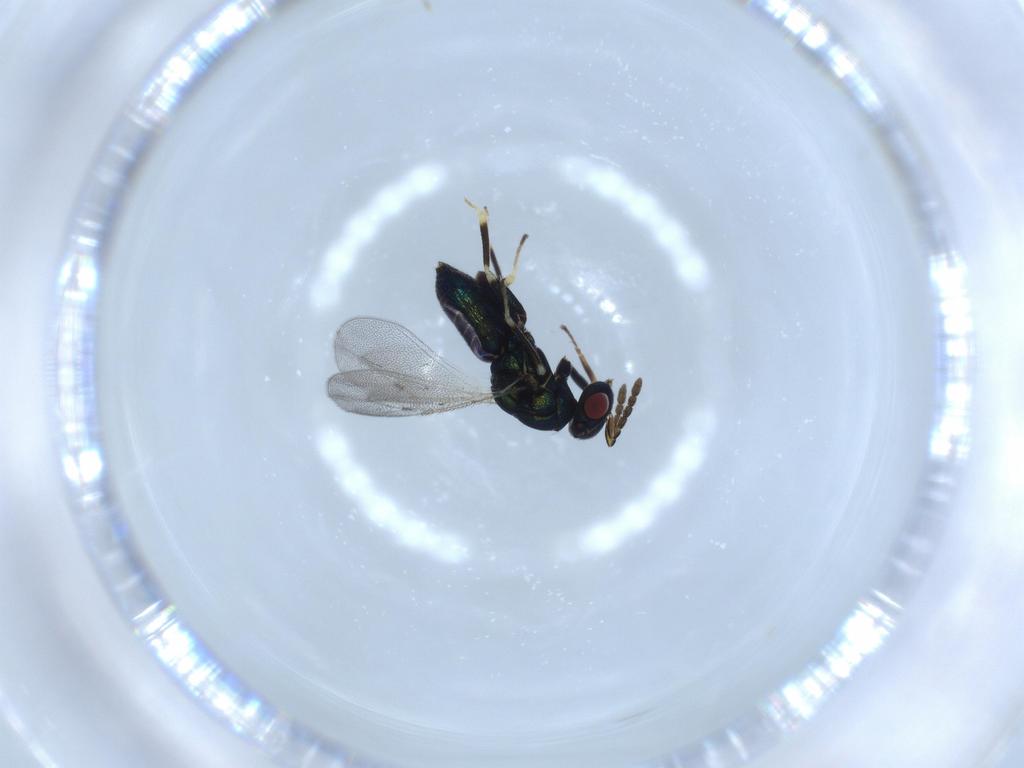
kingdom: Animalia
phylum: Arthropoda
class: Insecta
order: Hymenoptera
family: Eulophidae
